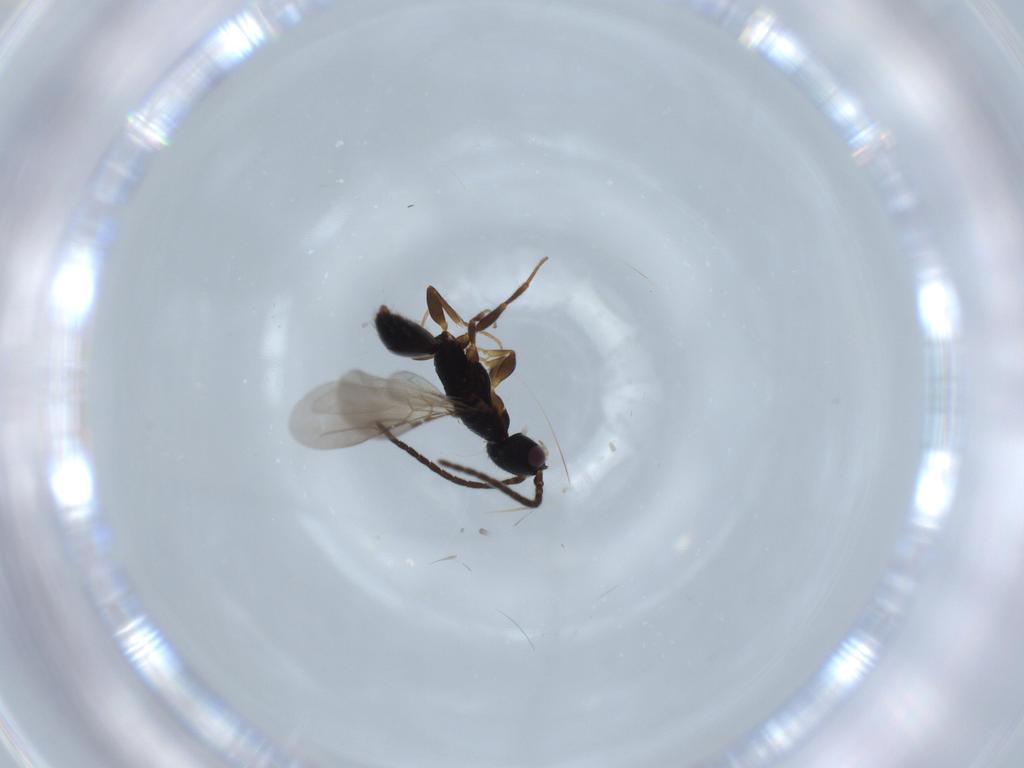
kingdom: Animalia
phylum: Arthropoda
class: Insecta
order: Hymenoptera
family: Bethylidae
